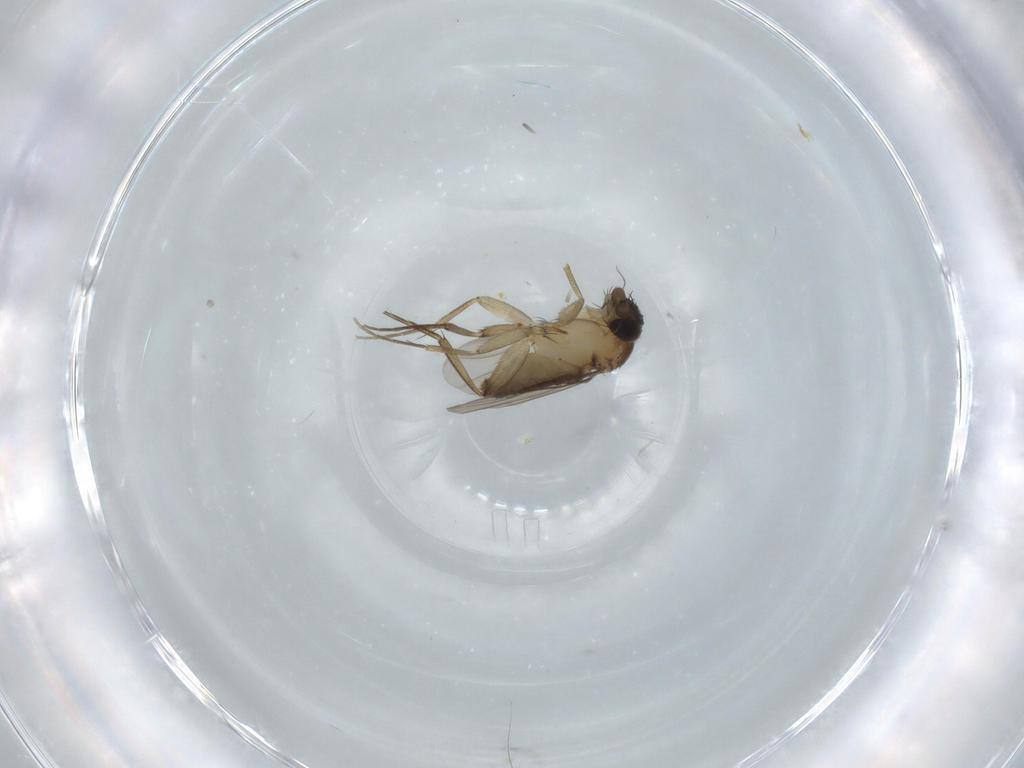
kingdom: Animalia
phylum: Arthropoda
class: Insecta
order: Diptera
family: Phoridae
